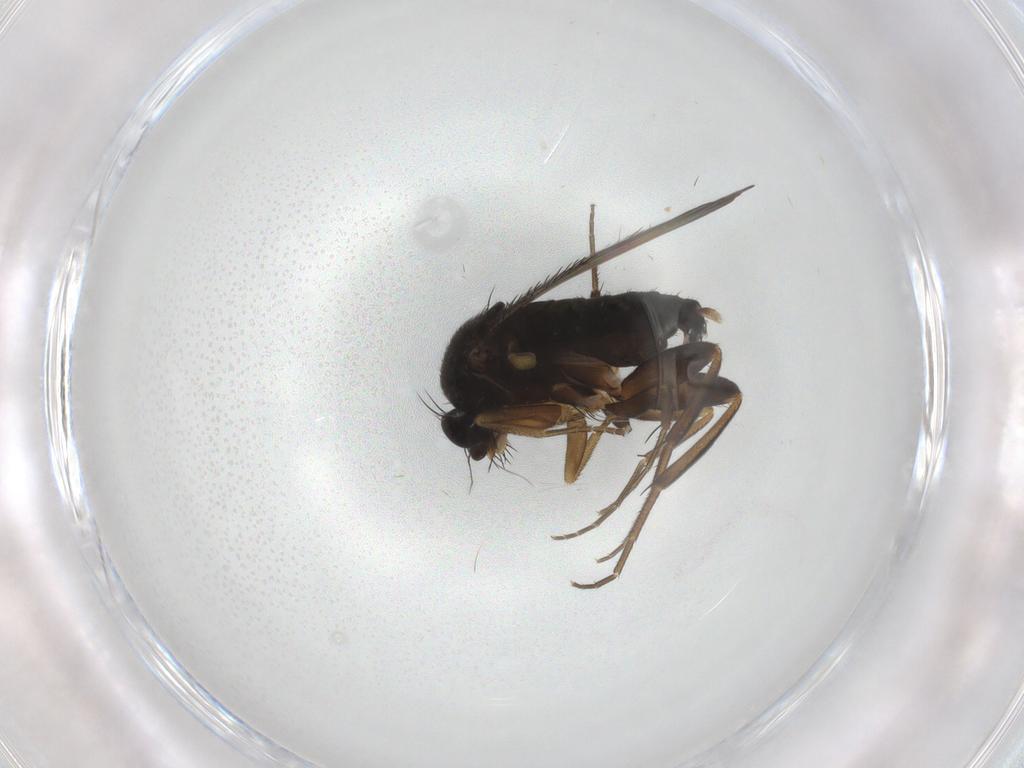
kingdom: Animalia
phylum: Arthropoda
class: Insecta
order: Diptera
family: Phoridae
